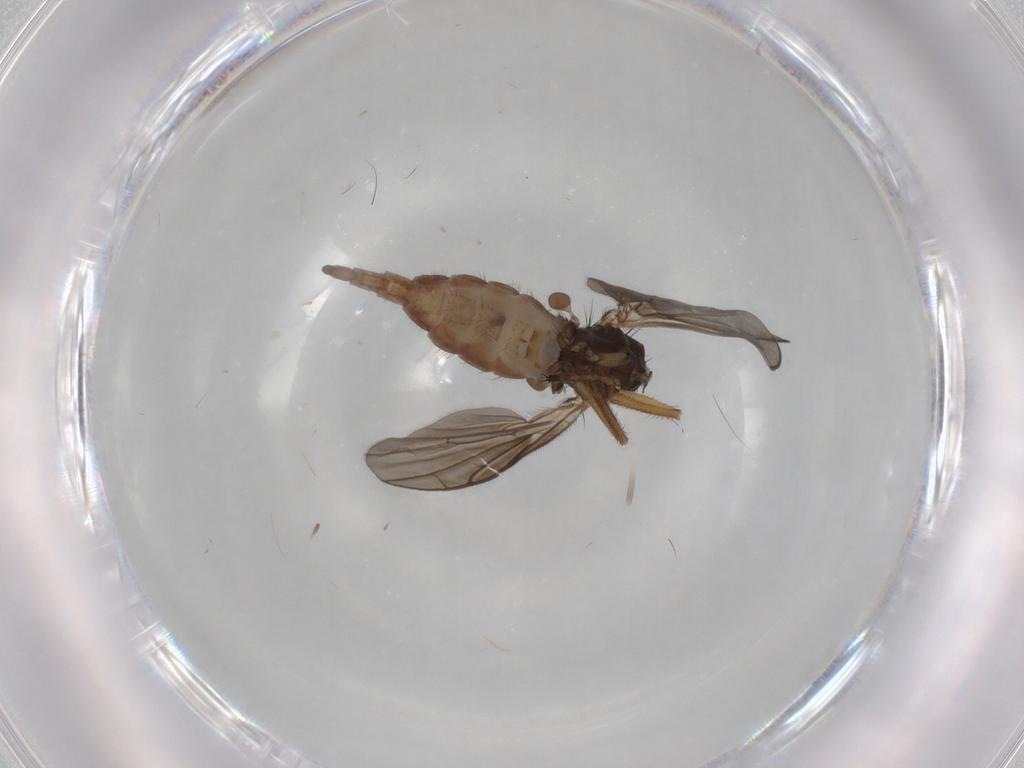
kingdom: Animalia
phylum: Arthropoda
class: Insecta
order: Diptera
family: Empididae
